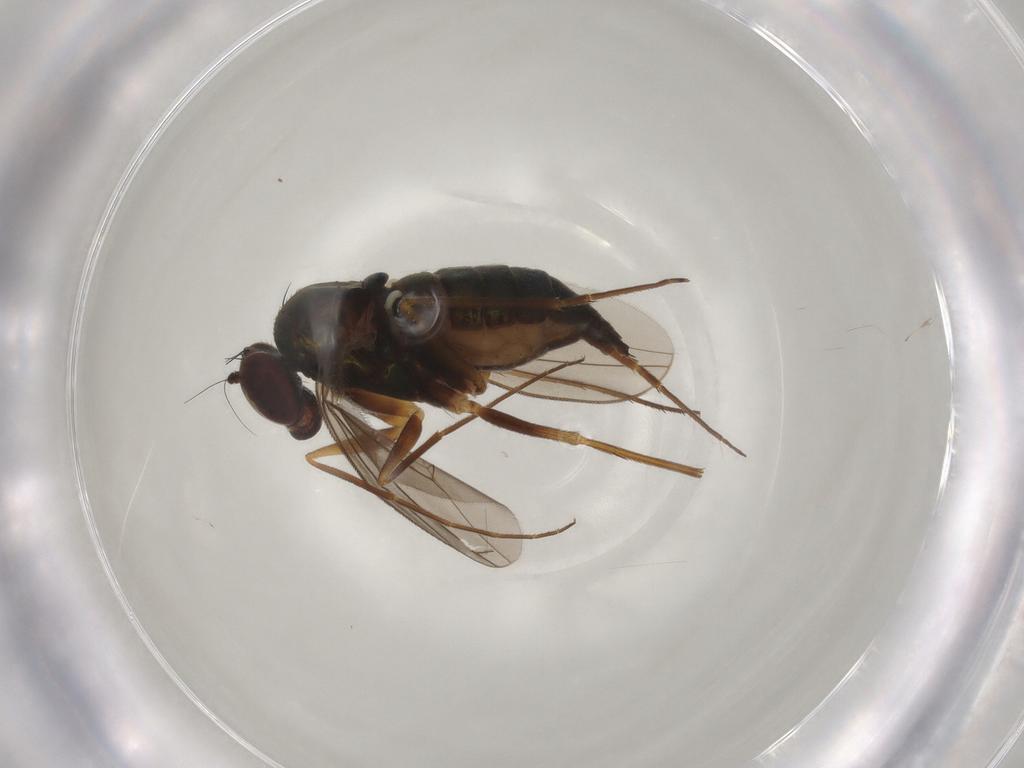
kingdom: Animalia
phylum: Arthropoda
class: Insecta
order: Diptera
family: Dolichopodidae
